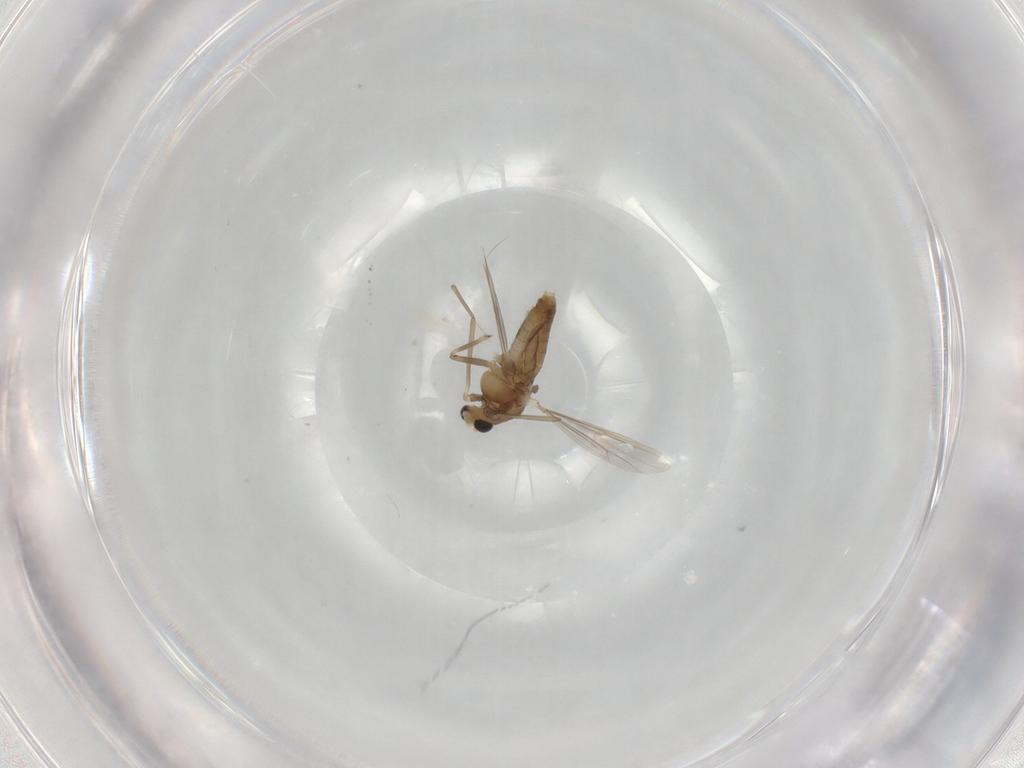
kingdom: Animalia
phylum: Arthropoda
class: Insecta
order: Diptera
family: Chironomidae
